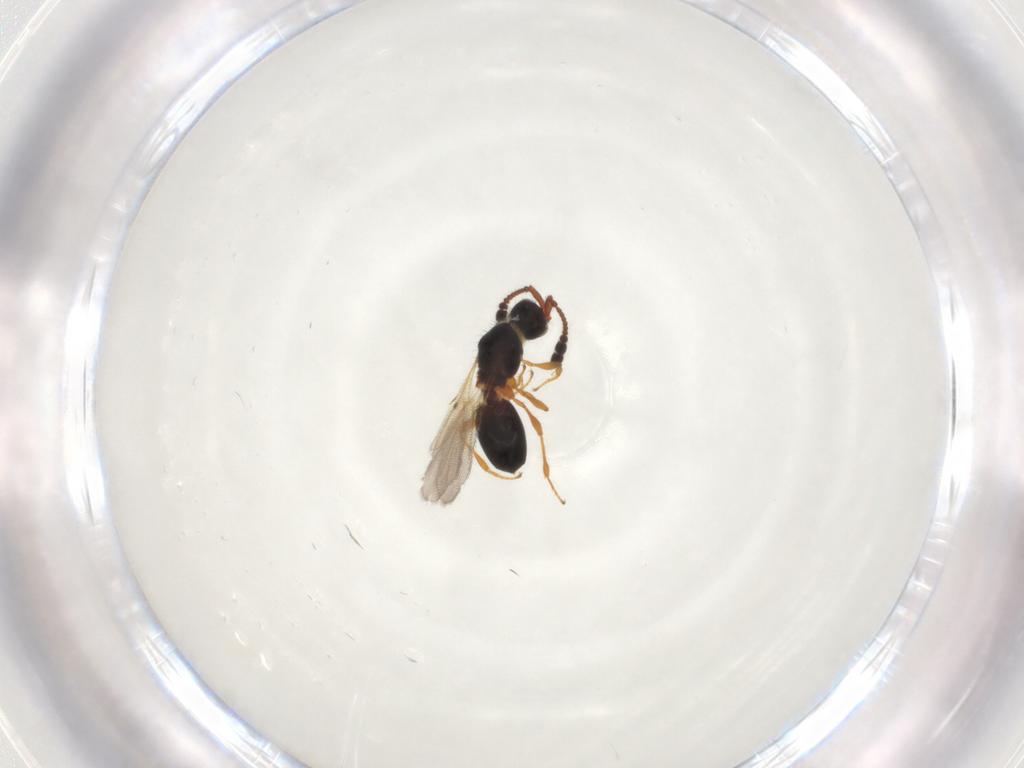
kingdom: Animalia
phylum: Arthropoda
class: Insecta
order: Hymenoptera
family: Diapriidae
